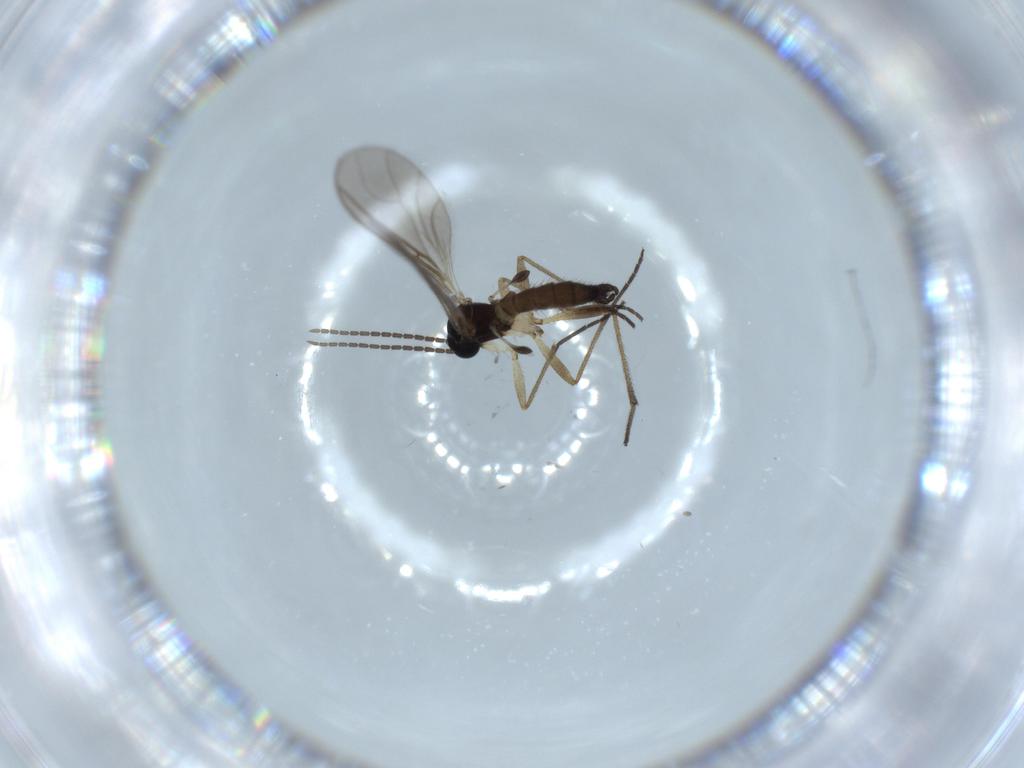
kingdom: Animalia
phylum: Arthropoda
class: Insecta
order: Diptera
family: Sciaridae
